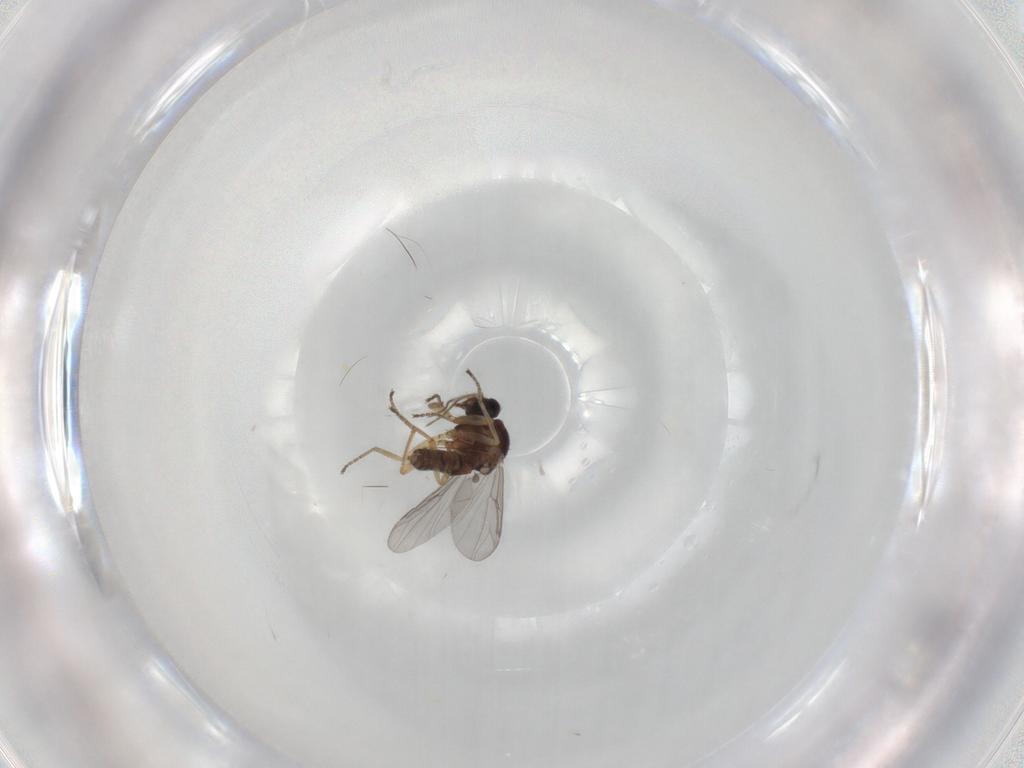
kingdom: Animalia
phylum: Arthropoda
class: Insecta
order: Diptera
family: Ceratopogonidae
